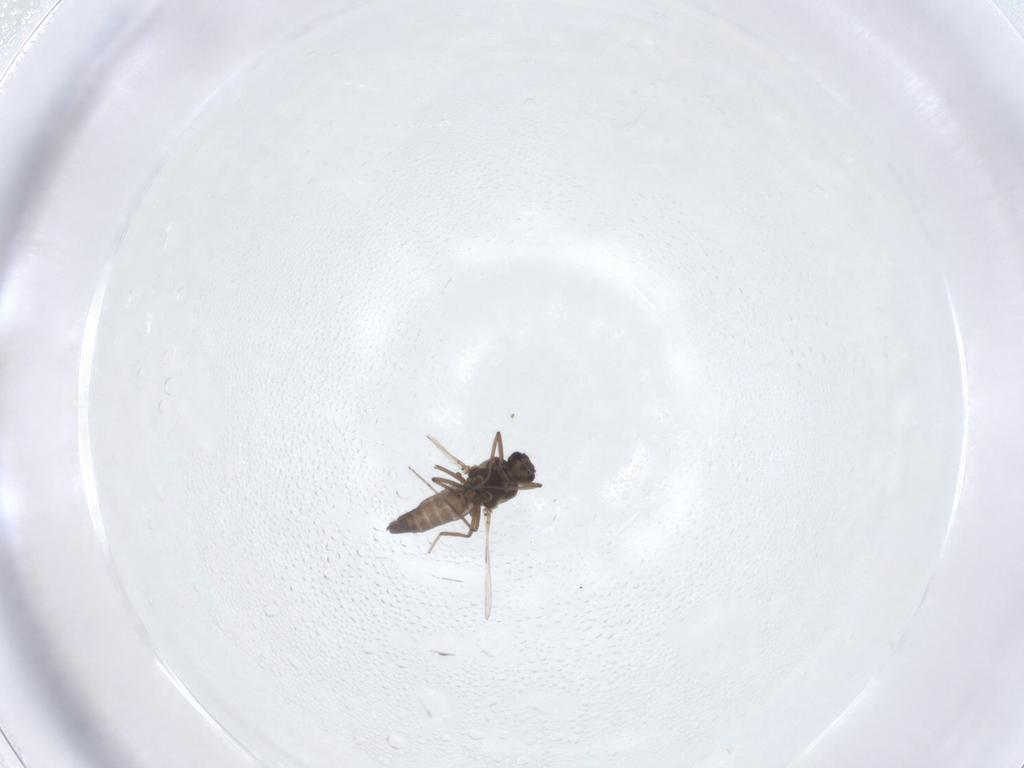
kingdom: Animalia
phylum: Arthropoda
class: Insecta
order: Diptera
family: Ceratopogonidae
